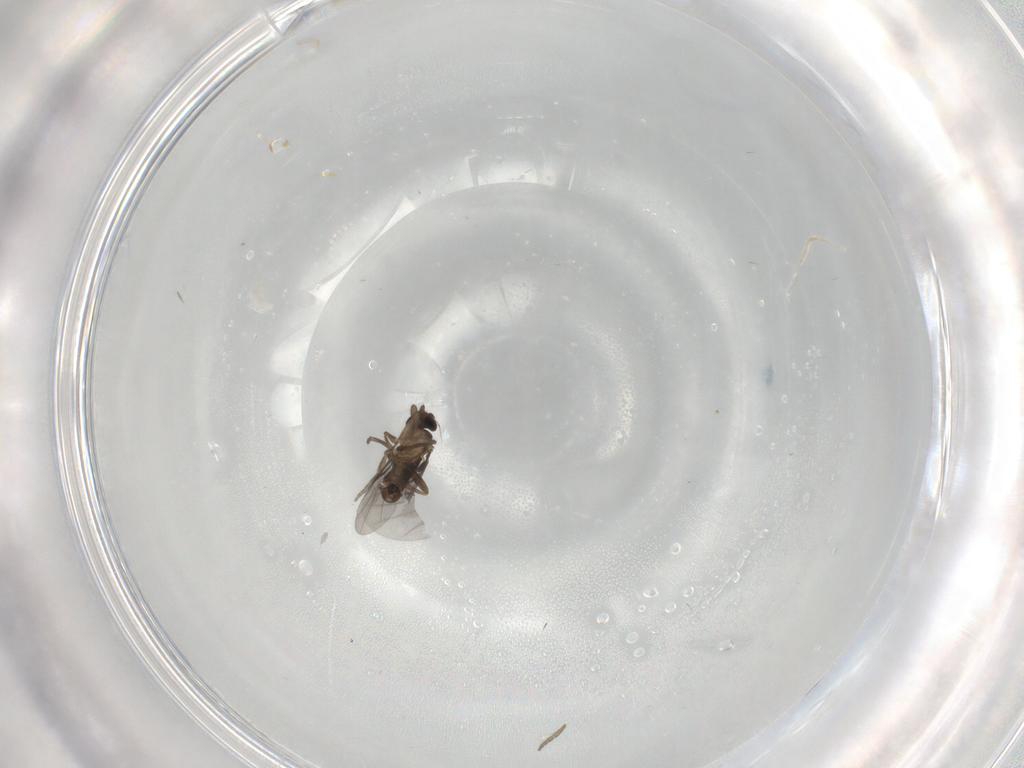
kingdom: Animalia
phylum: Arthropoda
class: Insecta
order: Diptera
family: Chironomidae
